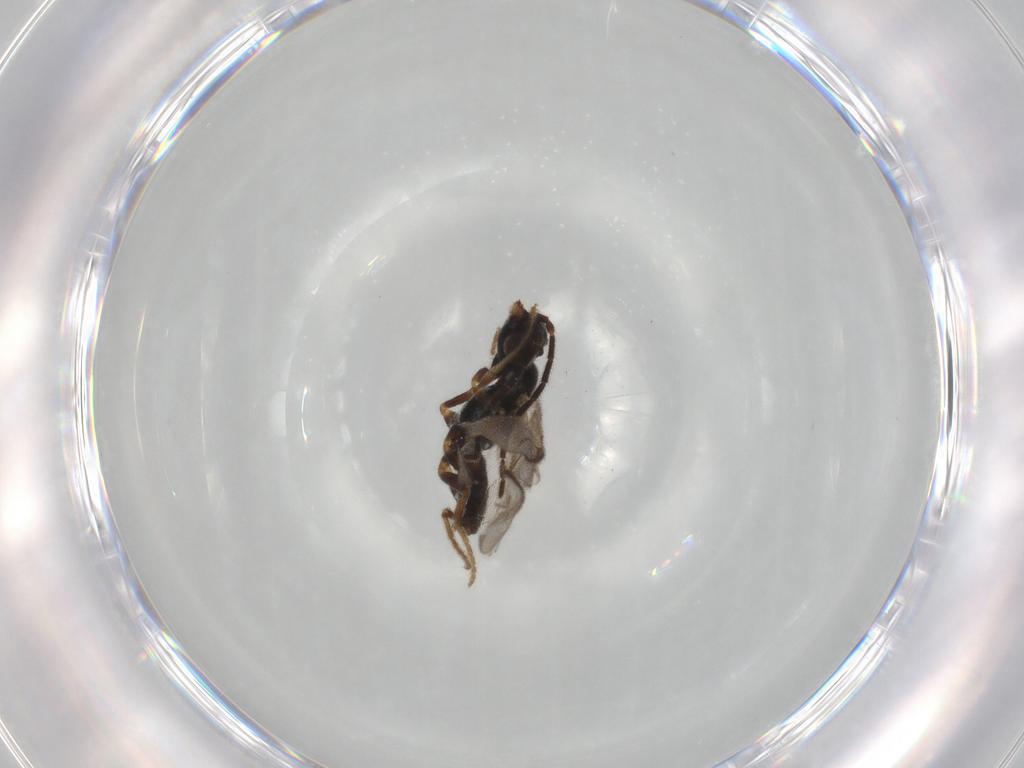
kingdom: Animalia
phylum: Arthropoda
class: Insecta
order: Hymenoptera
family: Dryinidae
